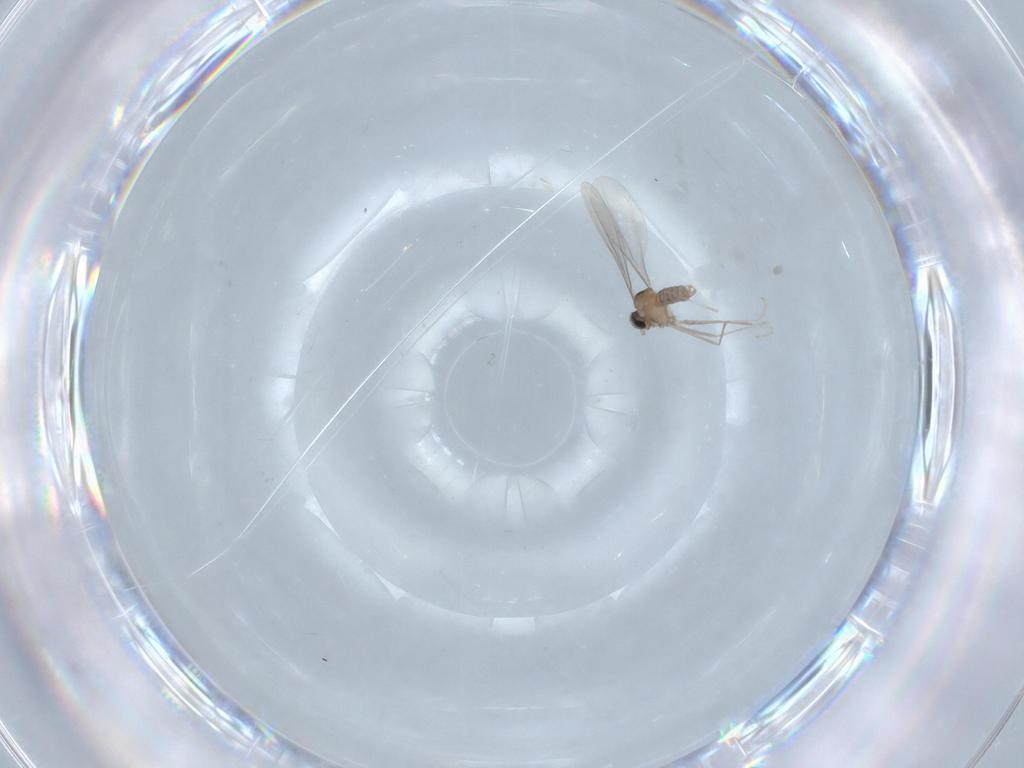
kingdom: Animalia
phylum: Arthropoda
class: Insecta
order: Diptera
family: Cecidomyiidae
